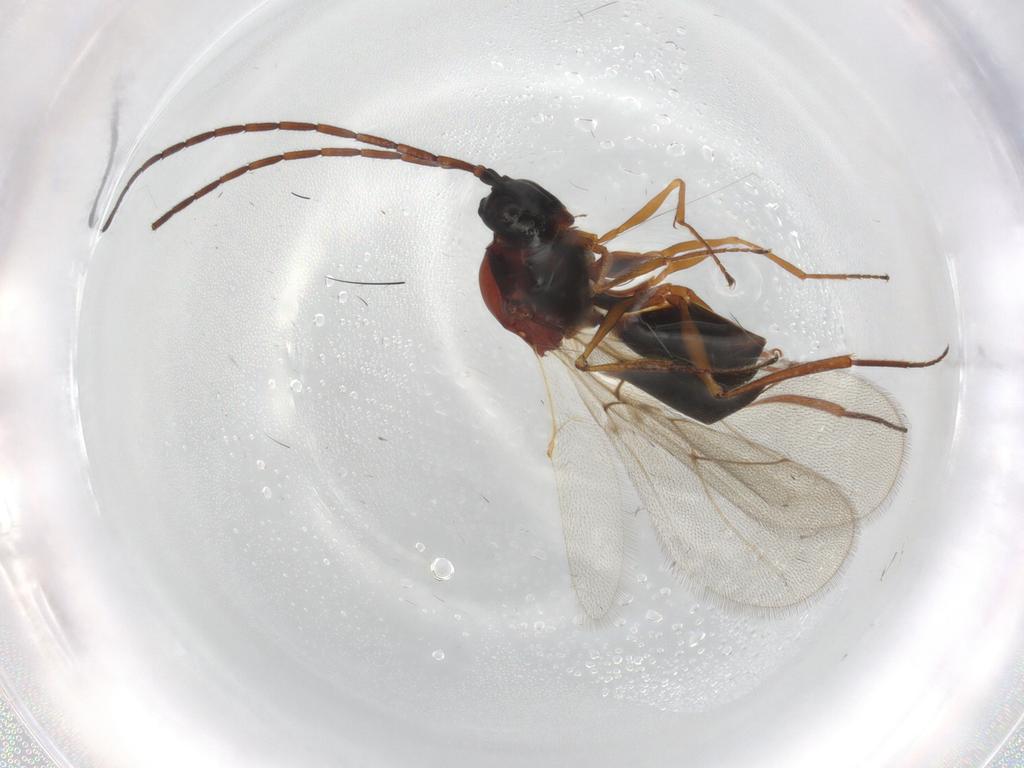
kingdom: Animalia
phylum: Arthropoda
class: Insecta
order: Hymenoptera
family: Figitidae
